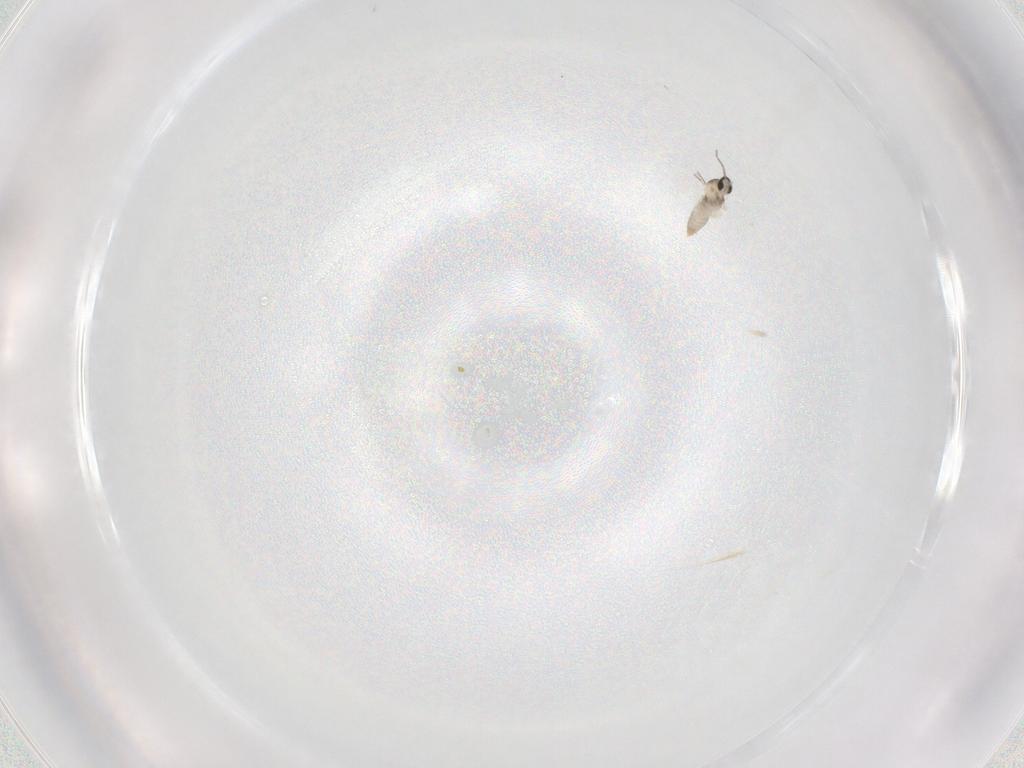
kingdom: Animalia
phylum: Arthropoda
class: Insecta
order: Diptera
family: Cecidomyiidae
